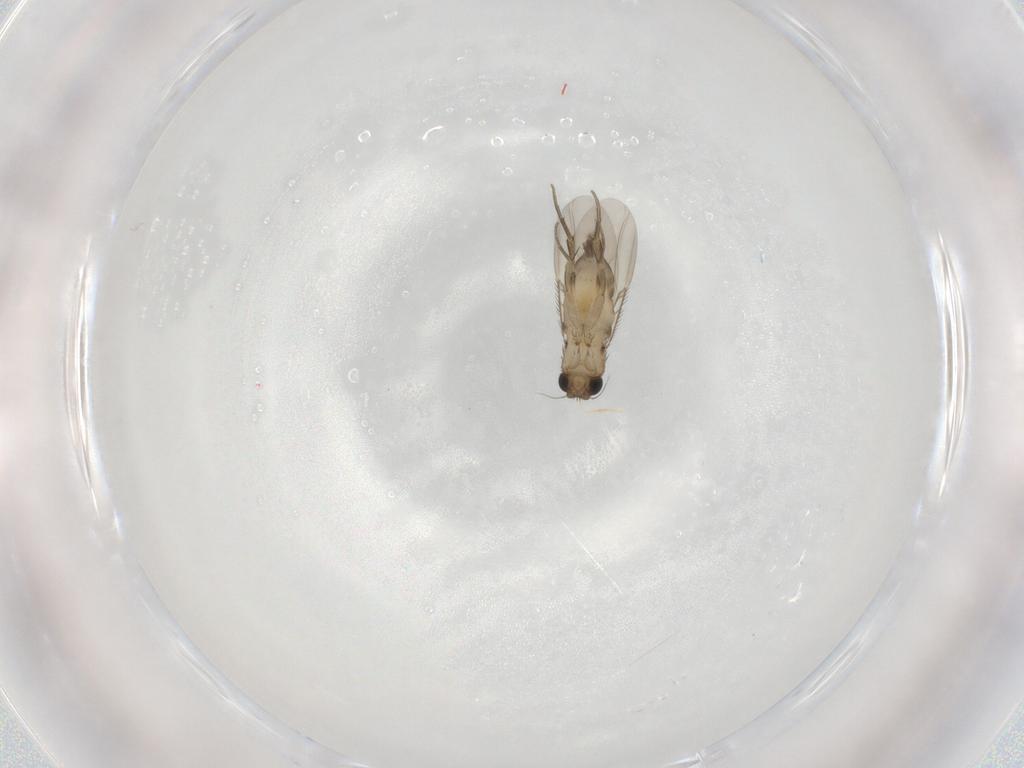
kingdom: Animalia
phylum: Arthropoda
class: Insecta
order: Diptera
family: Phoridae
